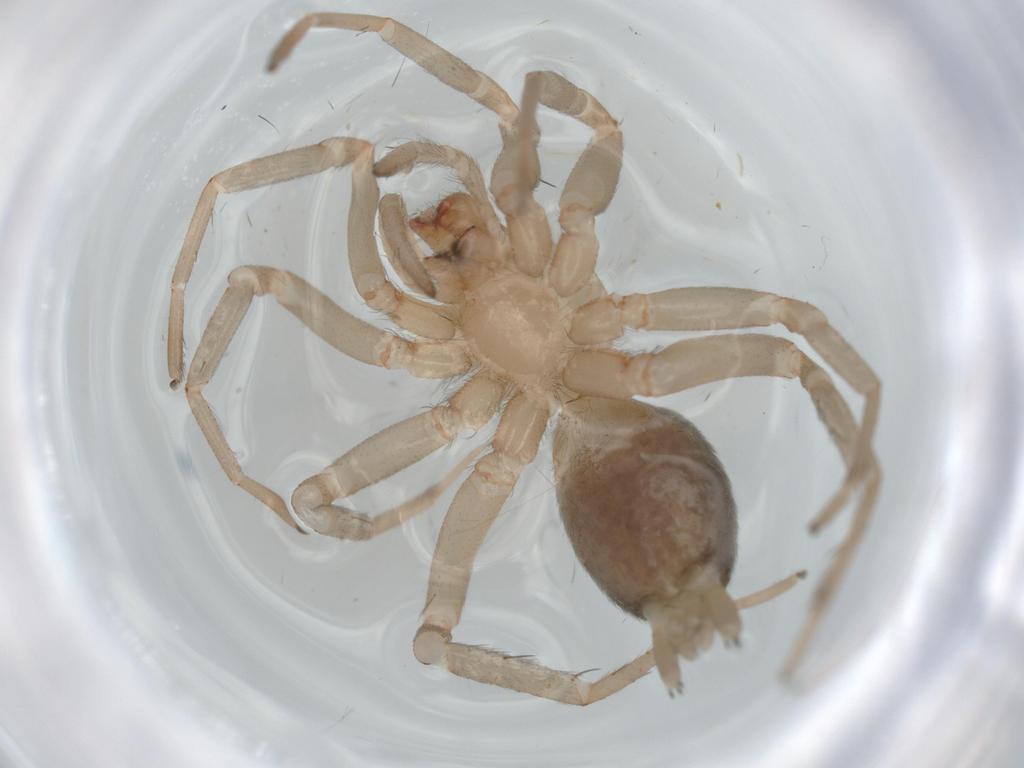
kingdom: Animalia
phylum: Arthropoda
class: Arachnida
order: Araneae
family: Gnaphosidae
